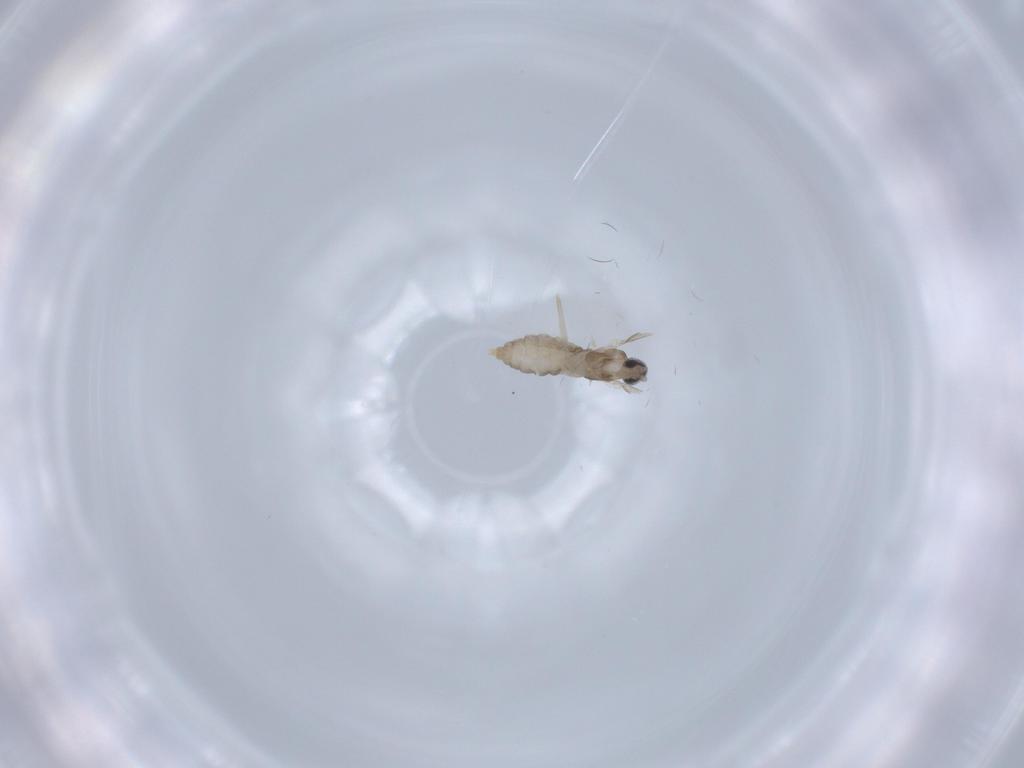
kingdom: Animalia
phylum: Arthropoda
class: Insecta
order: Diptera
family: Cecidomyiidae
